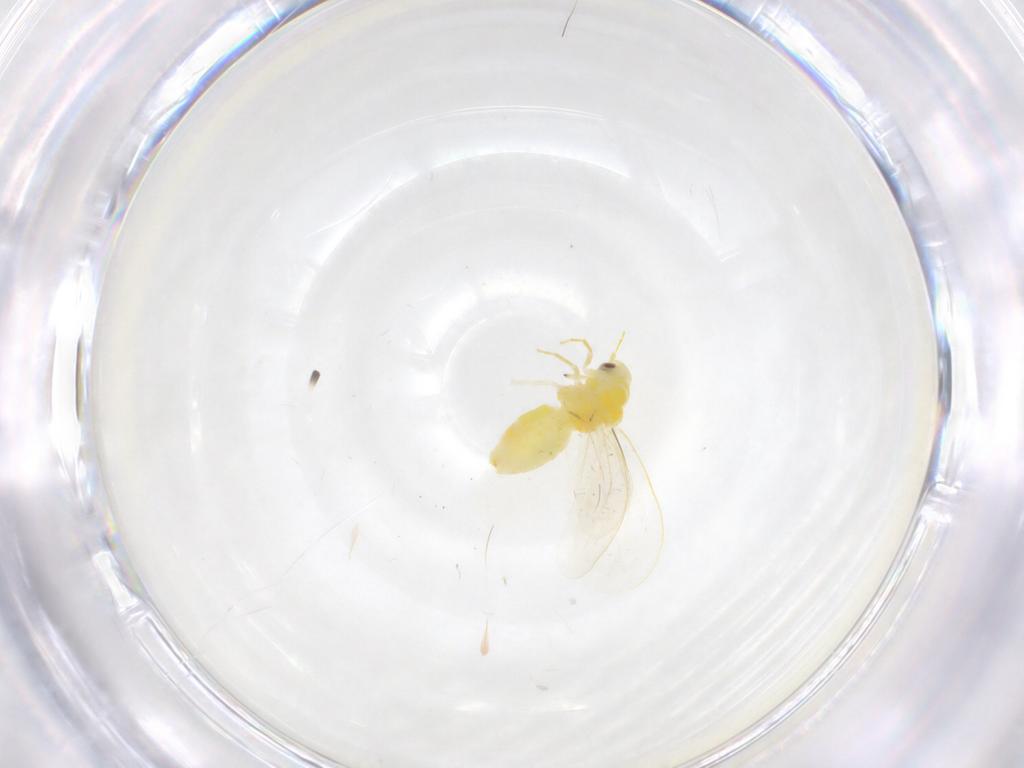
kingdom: Animalia
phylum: Arthropoda
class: Insecta
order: Hemiptera
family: Aleyrodidae
